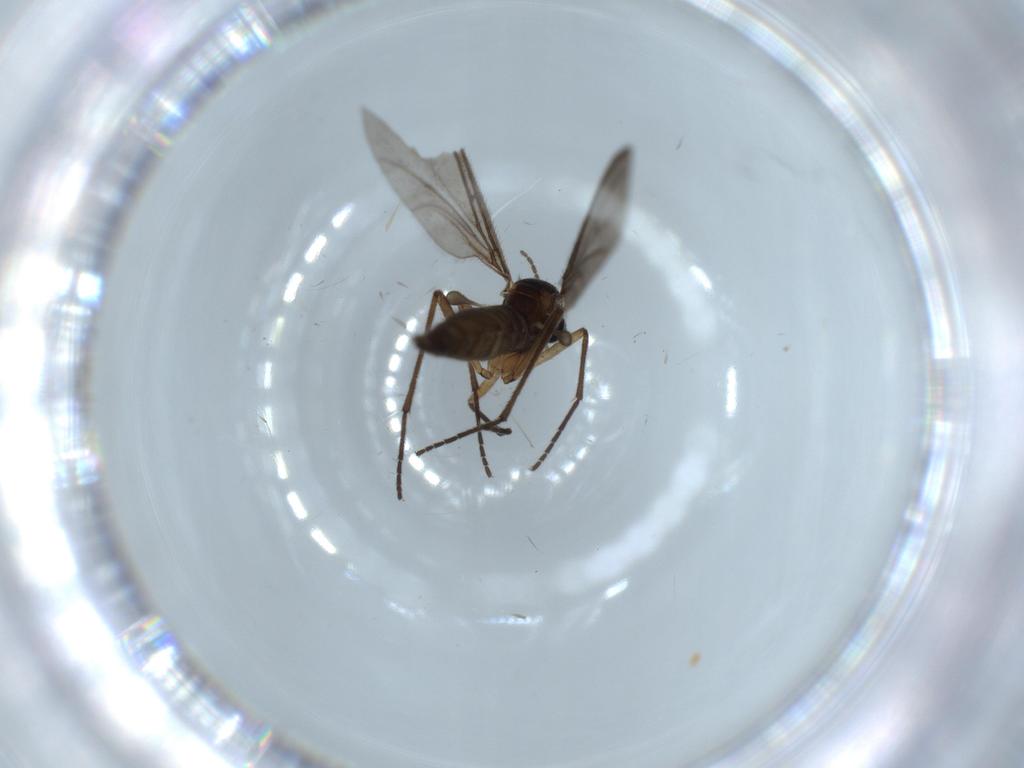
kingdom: Animalia
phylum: Arthropoda
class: Insecta
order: Diptera
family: Sciaridae
